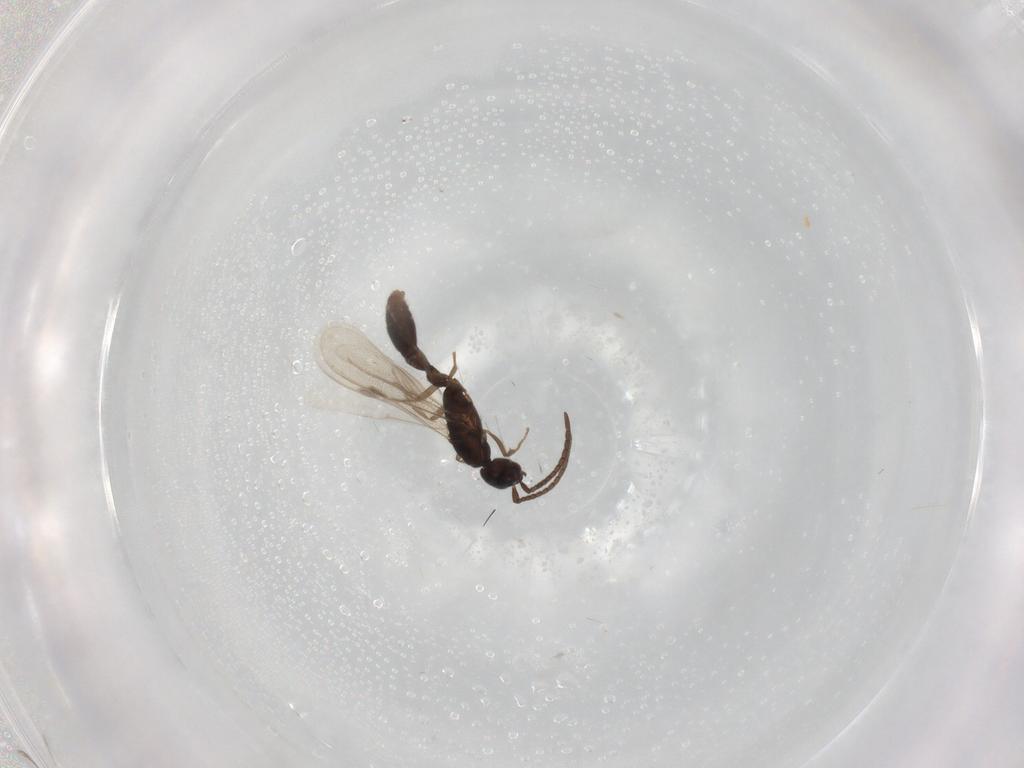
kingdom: Animalia
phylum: Arthropoda
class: Insecta
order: Hymenoptera
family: Formicidae
